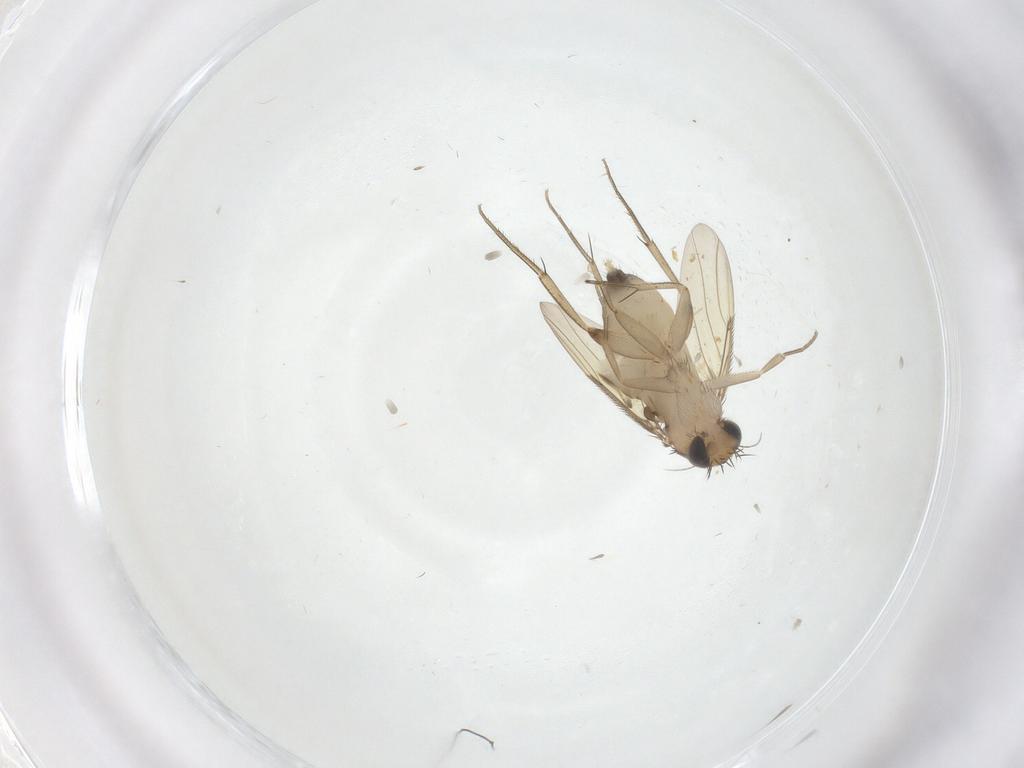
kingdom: Animalia
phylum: Arthropoda
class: Insecta
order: Diptera
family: Phoridae
